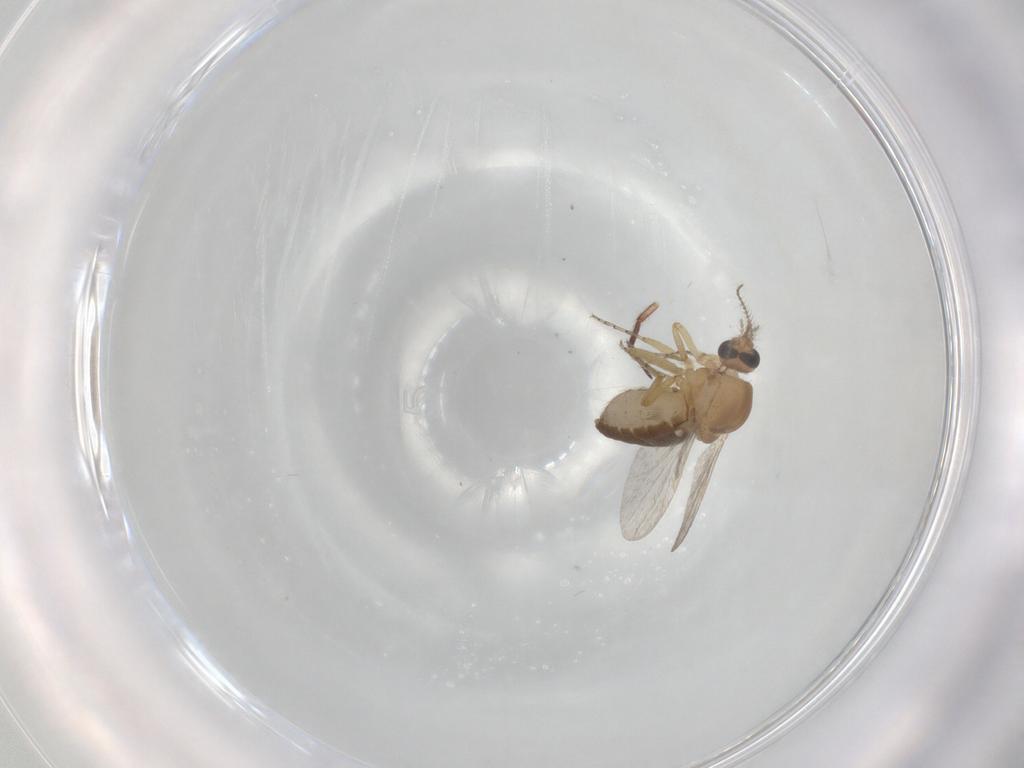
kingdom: Animalia
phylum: Arthropoda
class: Insecta
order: Diptera
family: Ceratopogonidae
